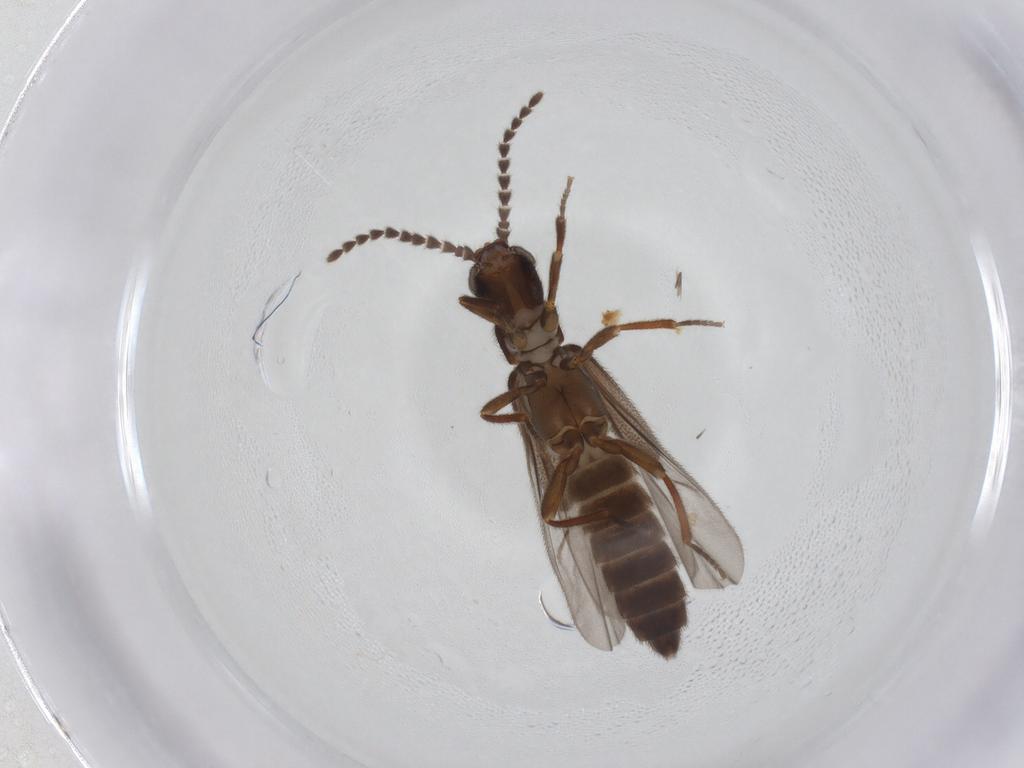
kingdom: Animalia
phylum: Arthropoda
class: Insecta
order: Coleoptera
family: Omethidae
